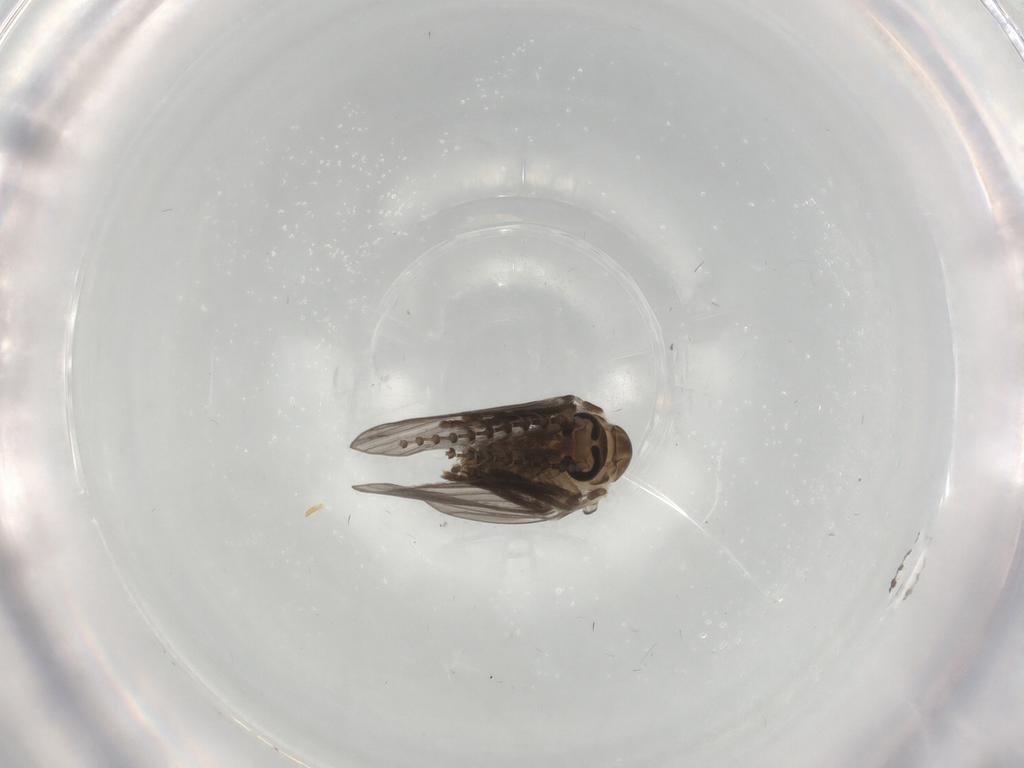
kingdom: Animalia
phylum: Arthropoda
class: Insecta
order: Diptera
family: Psychodidae
